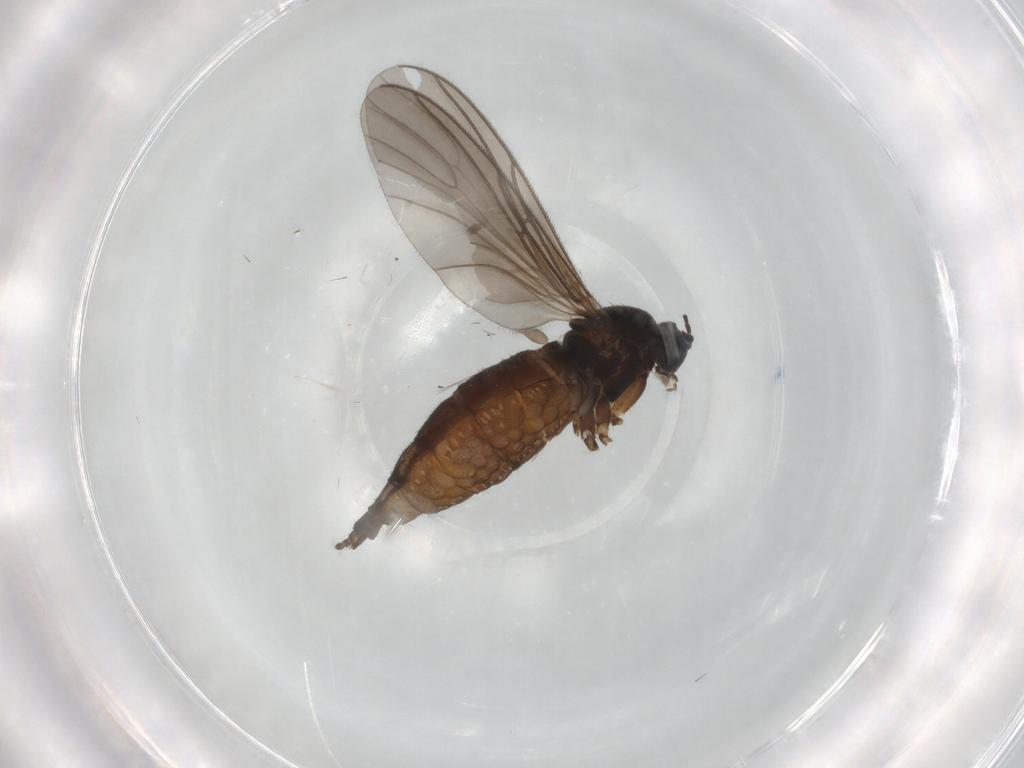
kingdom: Animalia
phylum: Arthropoda
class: Insecta
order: Diptera
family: Sciaridae
